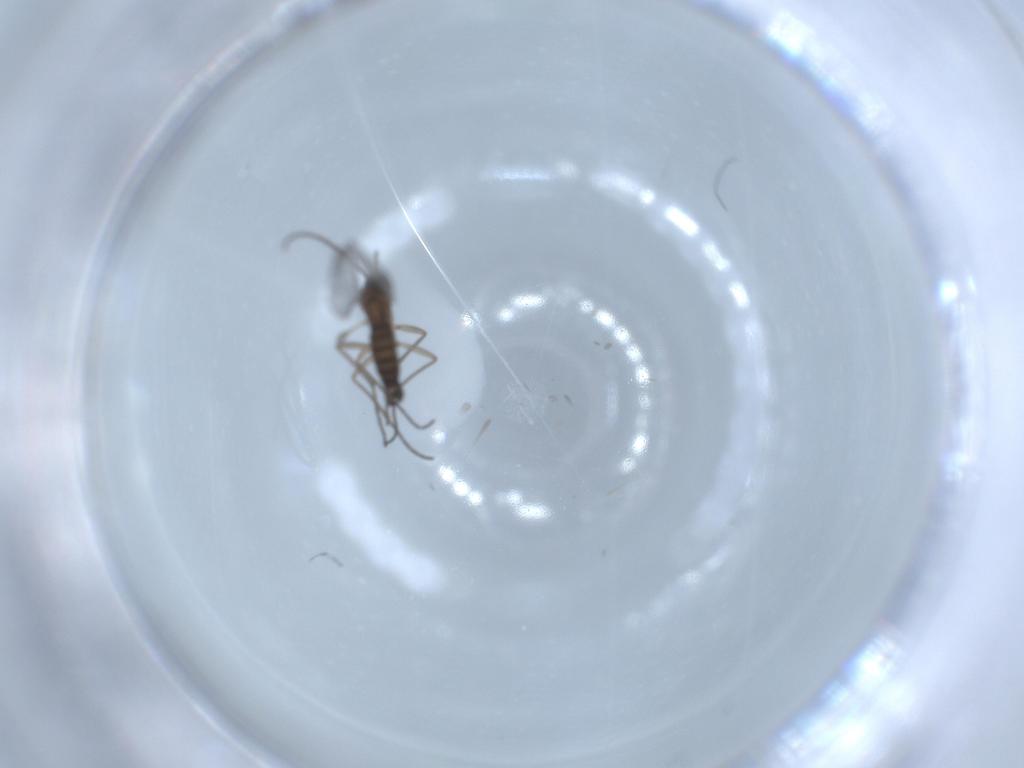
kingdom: Animalia
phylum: Arthropoda
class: Insecta
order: Diptera
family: Sciaridae
